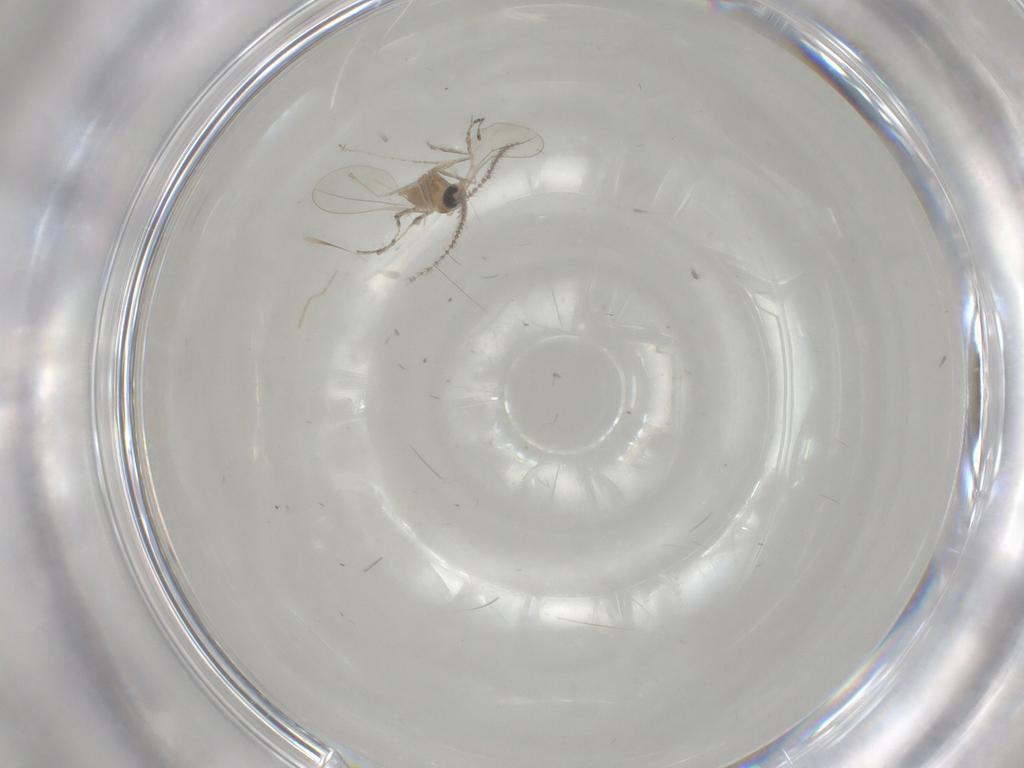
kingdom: Animalia
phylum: Arthropoda
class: Insecta
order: Diptera
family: Cecidomyiidae
